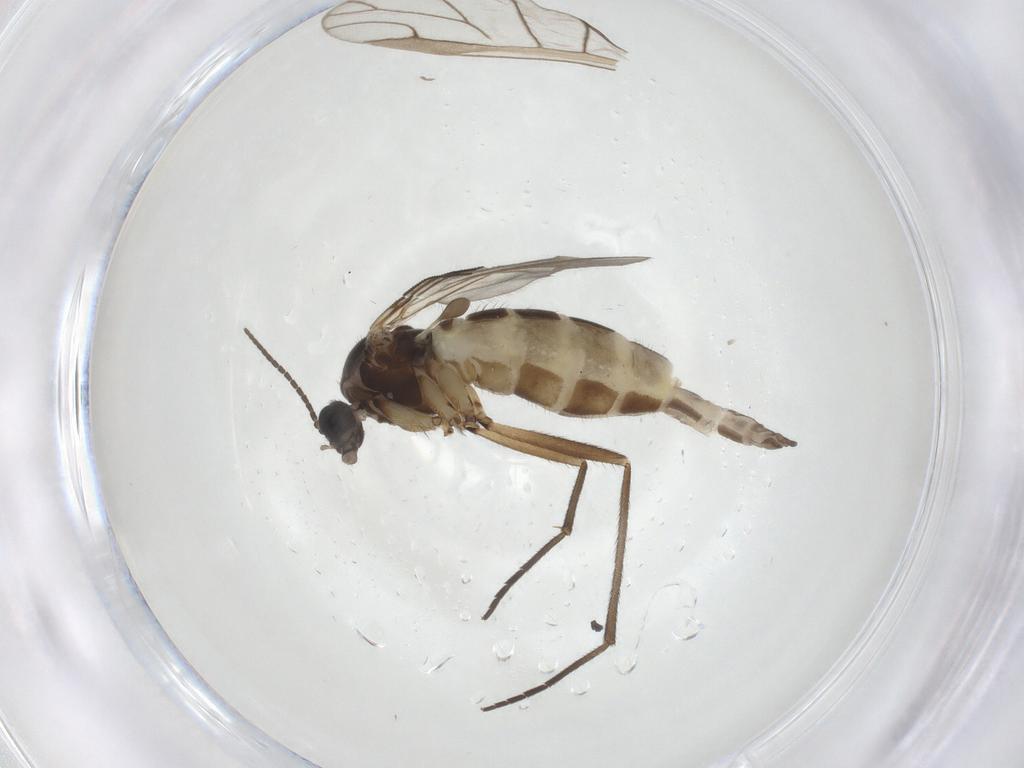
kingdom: Animalia
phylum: Arthropoda
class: Insecta
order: Diptera
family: Sciaridae
